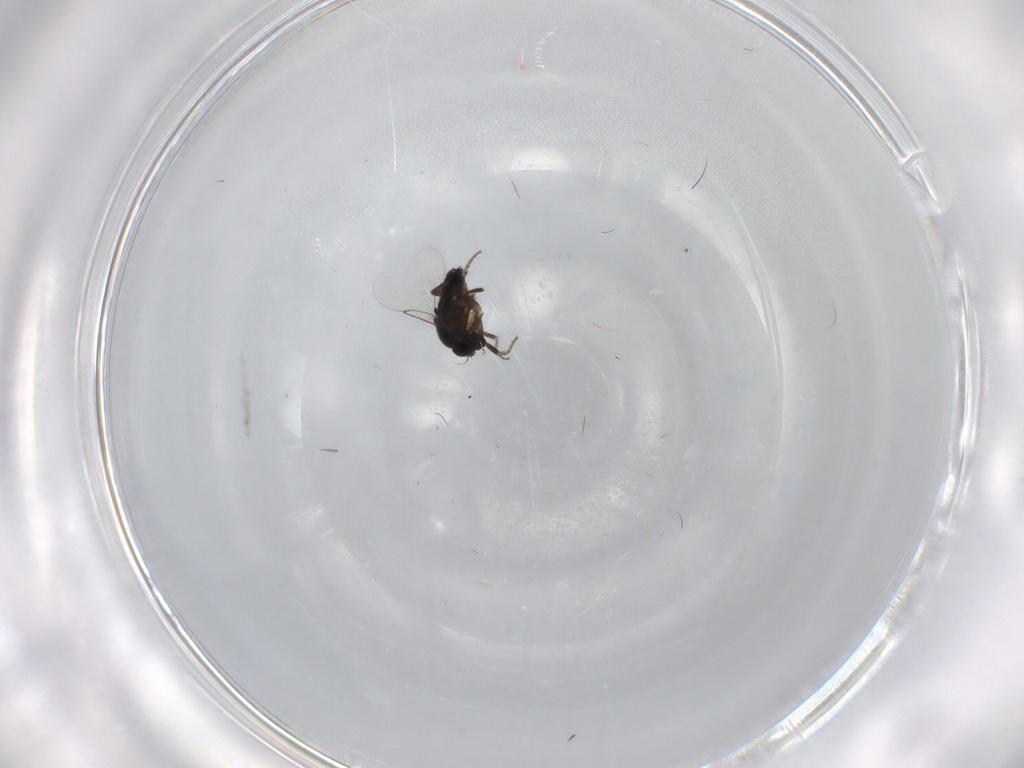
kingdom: Animalia
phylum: Arthropoda
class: Insecta
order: Diptera
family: Phoridae
